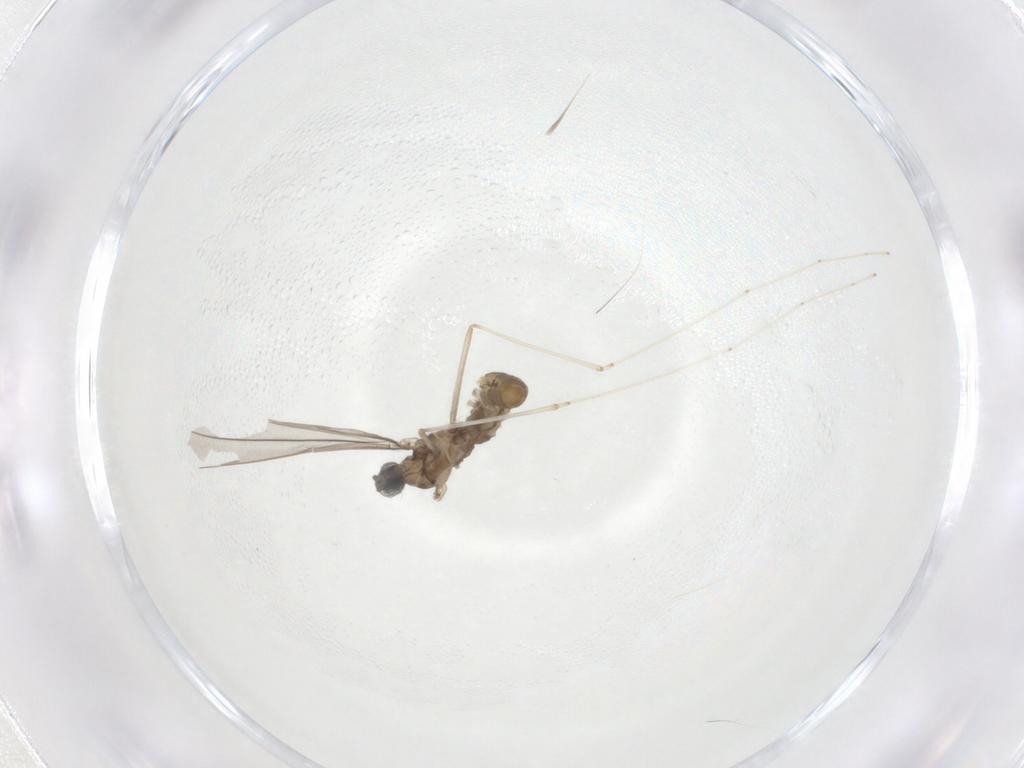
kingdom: Animalia
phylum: Arthropoda
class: Insecta
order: Diptera
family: Cecidomyiidae
